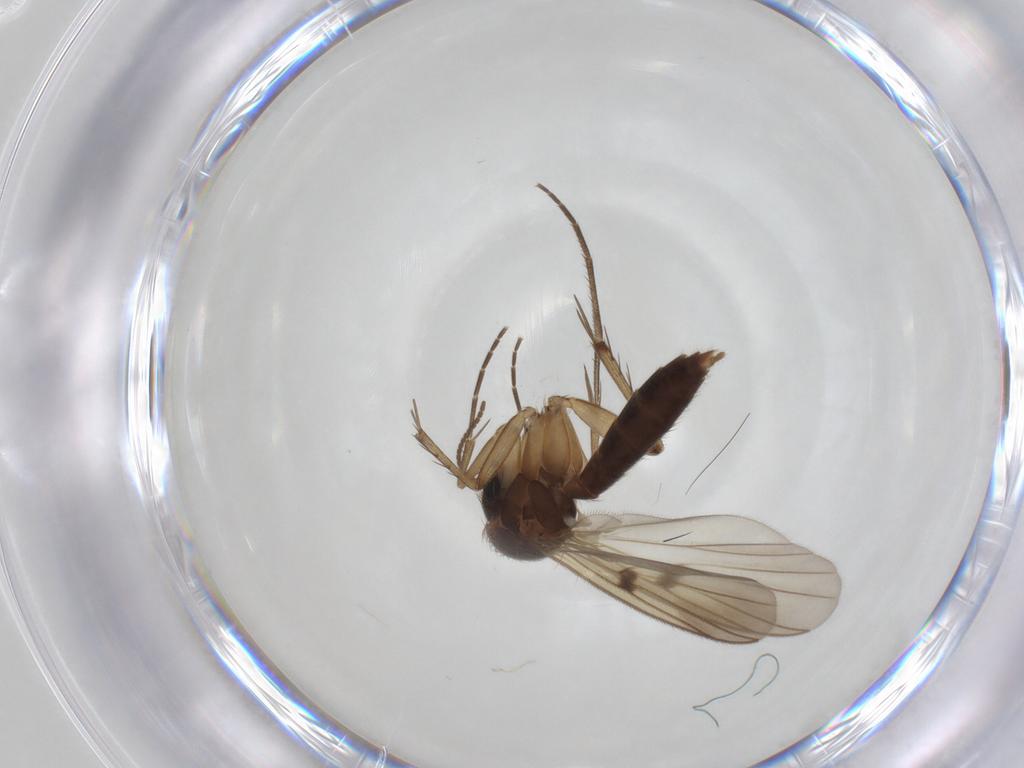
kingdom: Animalia
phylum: Arthropoda
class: Insecta
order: Diptera
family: Mycetophilidae
